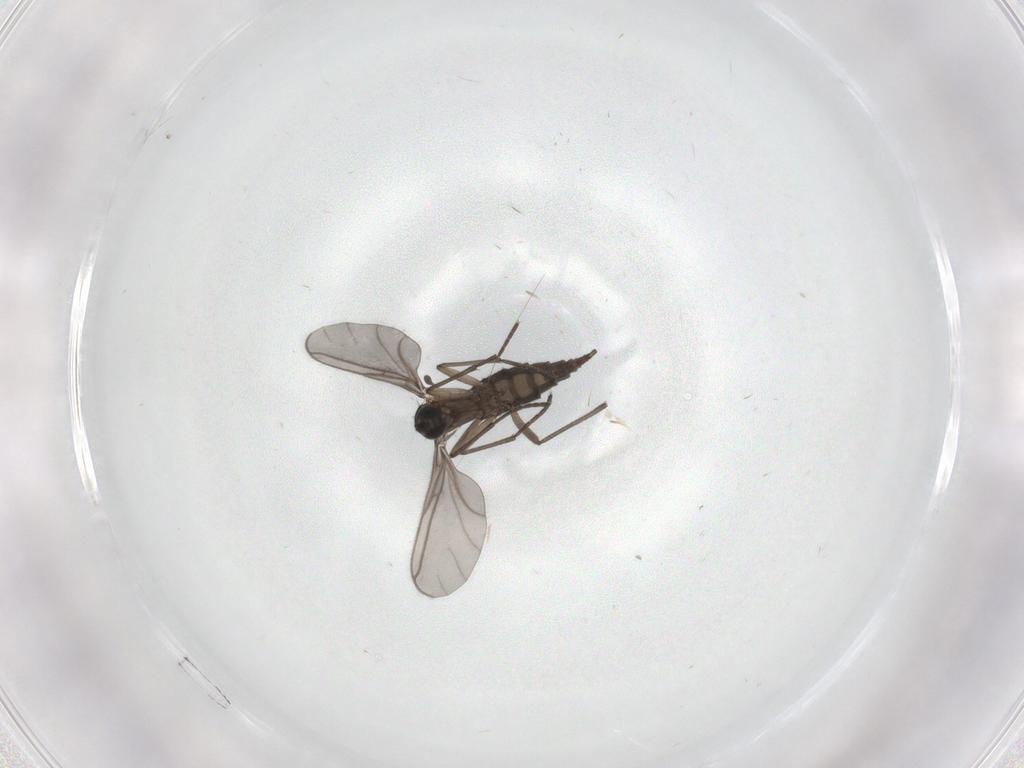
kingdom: Animalia
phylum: Arthropoda
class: Insecta
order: Diptera
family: Chironomidae
